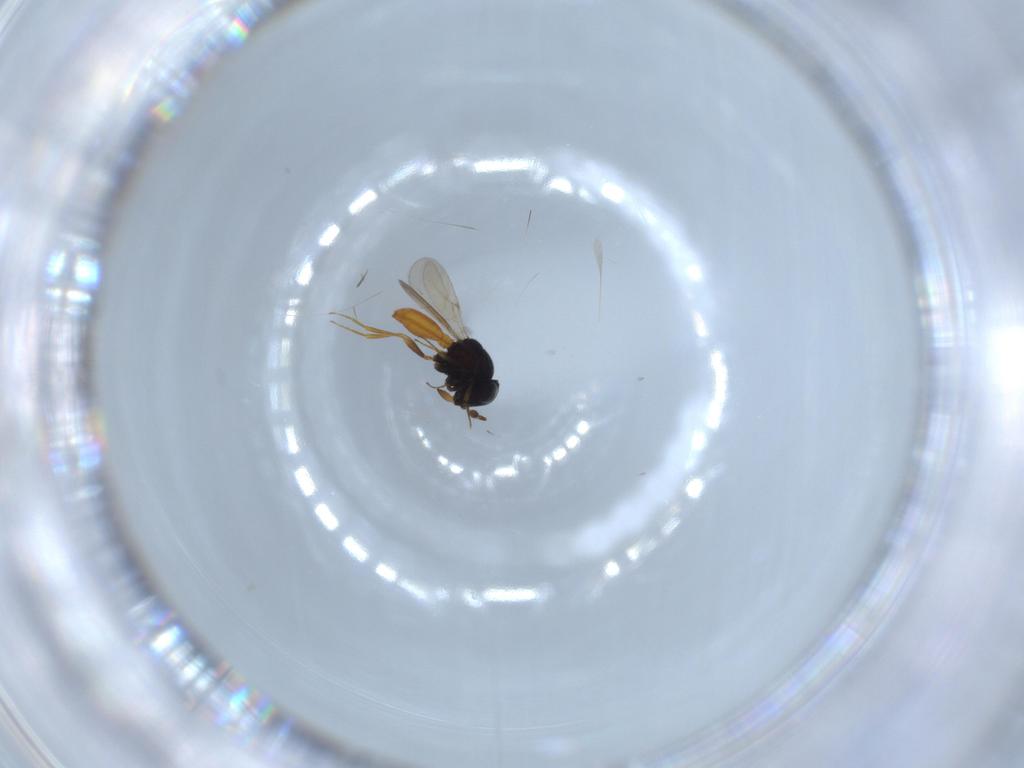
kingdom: Animalia
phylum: Arthropoda
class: Insecta
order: Hymenoptera
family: Scelionidae
